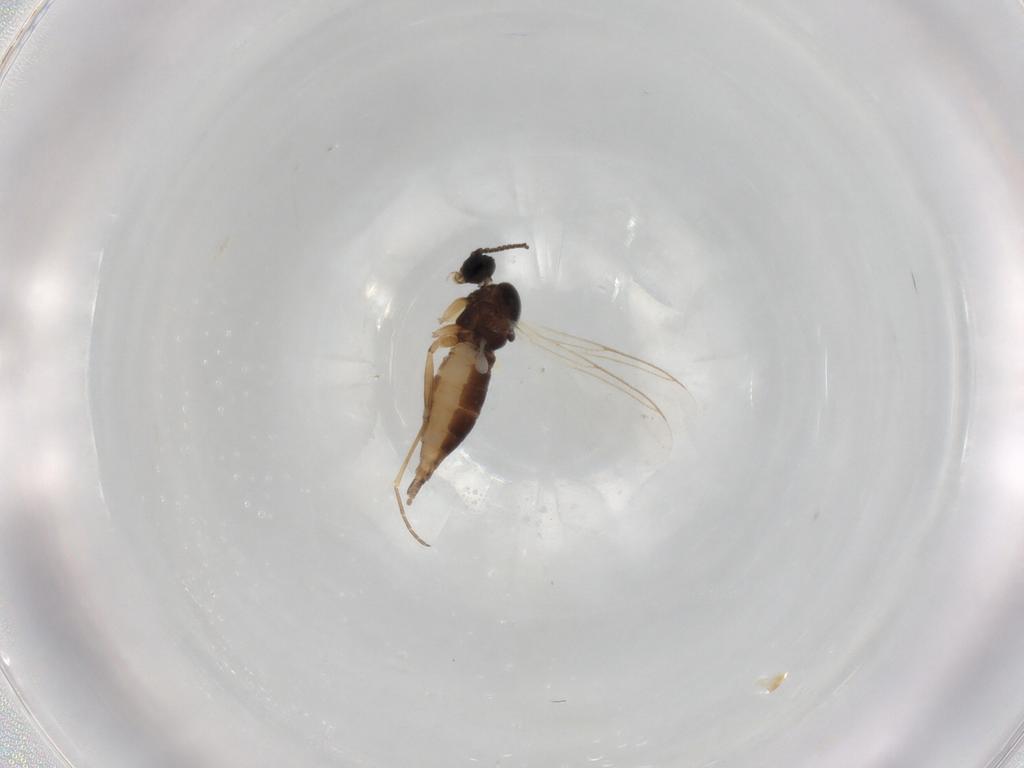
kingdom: Animalia
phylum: Arthropoda
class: Insecta
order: Diptera
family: Sciaridae
